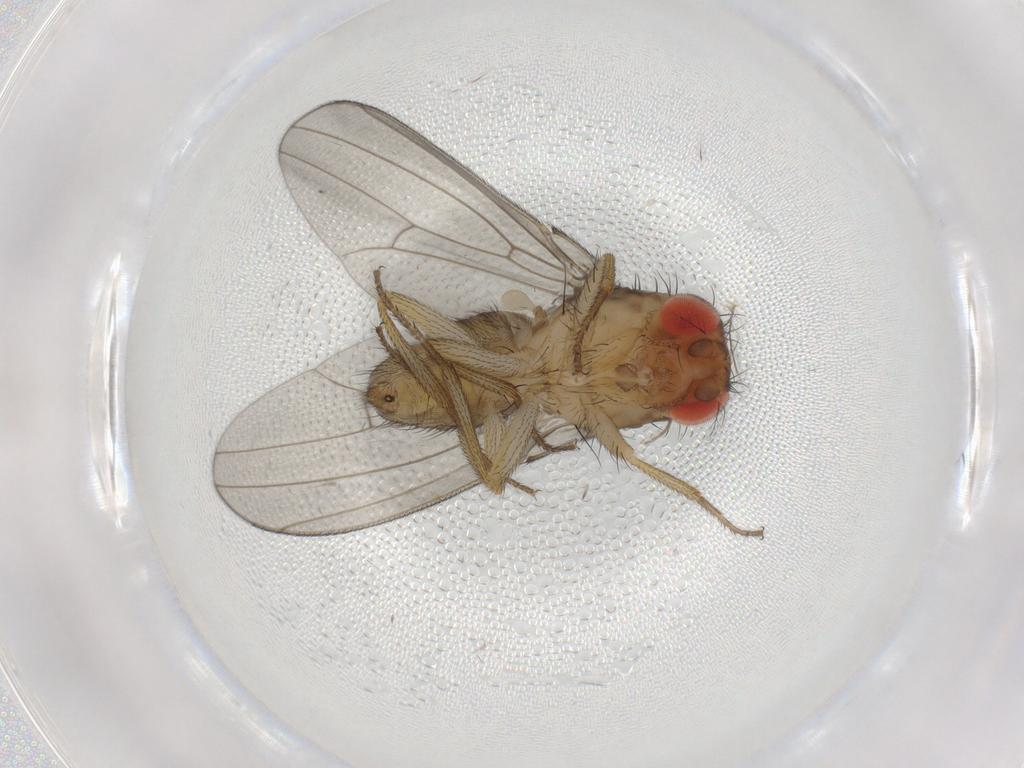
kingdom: Animalia
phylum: Arthropoda
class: Insecta
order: Diptera
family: Drosophilidae
